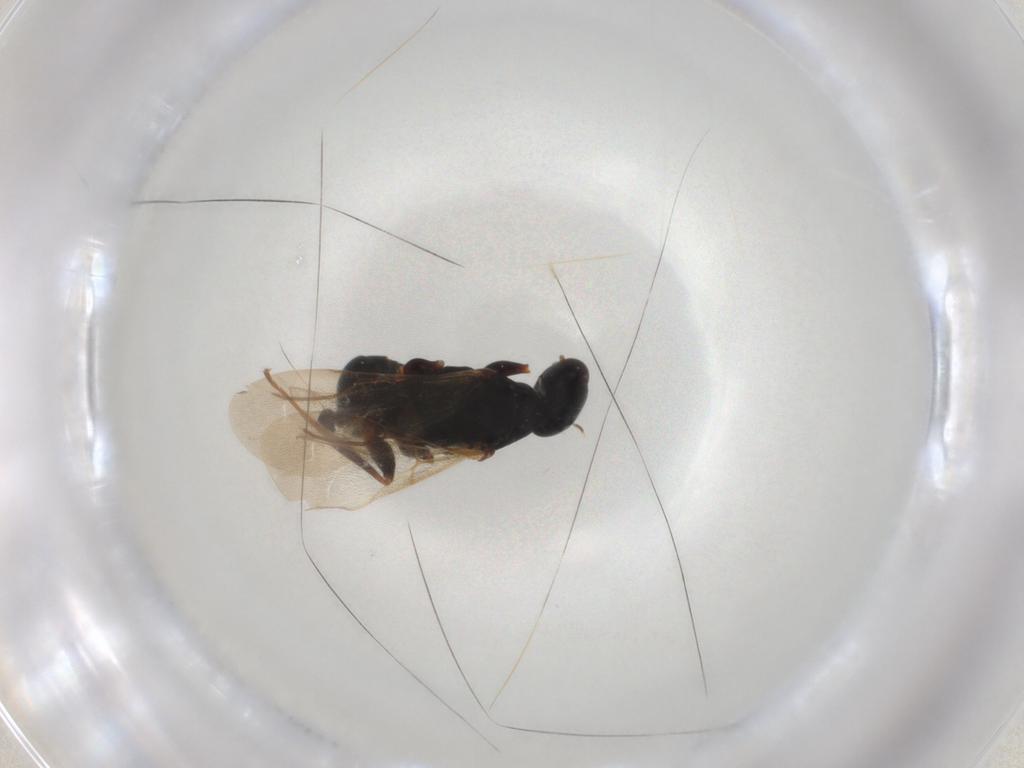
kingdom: Animalia
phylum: Arthropoda
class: Insecta
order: Hymenoptera
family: Bethylidae
